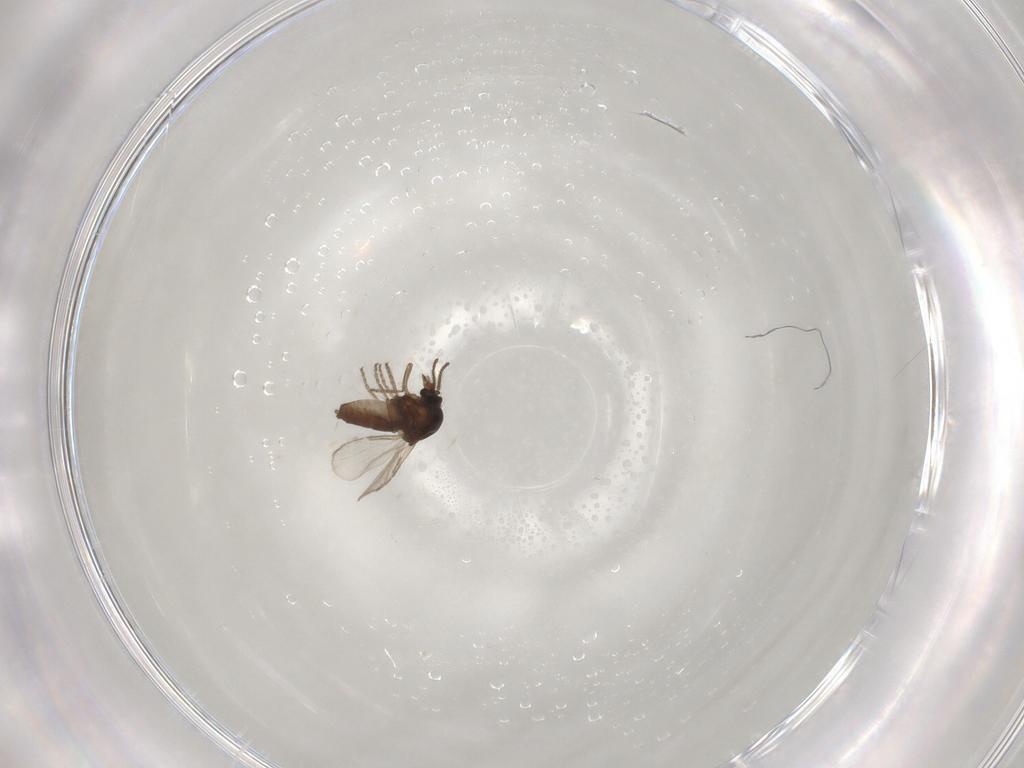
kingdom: Animalia
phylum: Arthropoda
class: Insecta
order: Diptera
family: Ceratopogonidae
